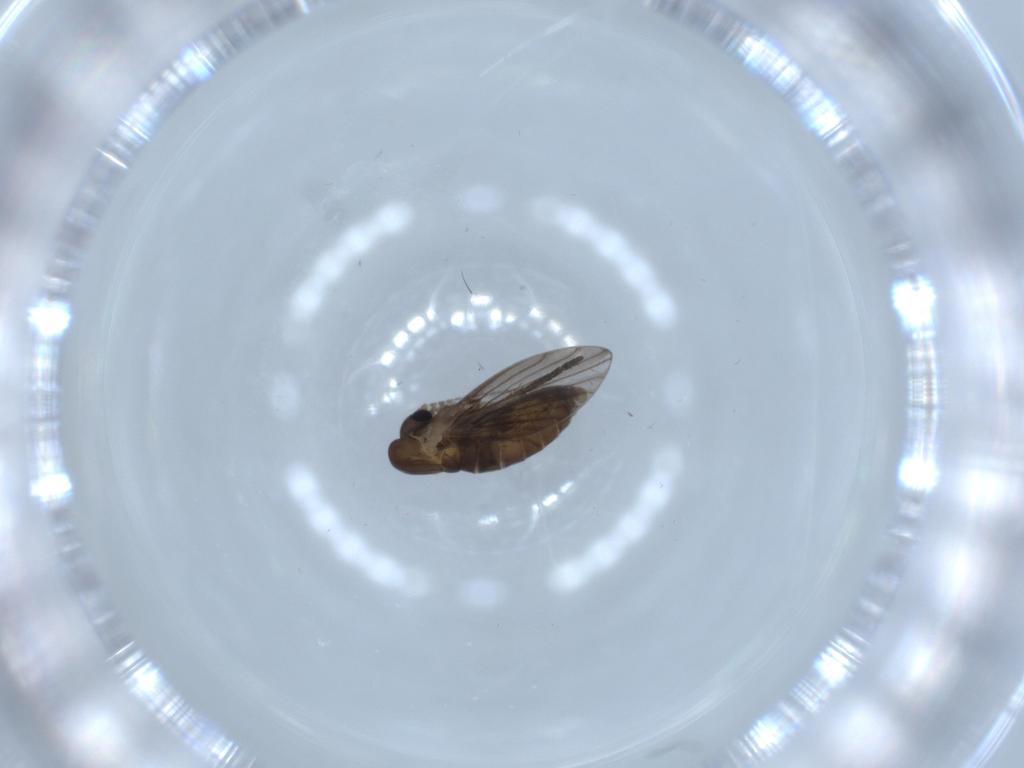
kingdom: Animalia
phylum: Arthropoda
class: Insecta
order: Diptera
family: Psychodidae
